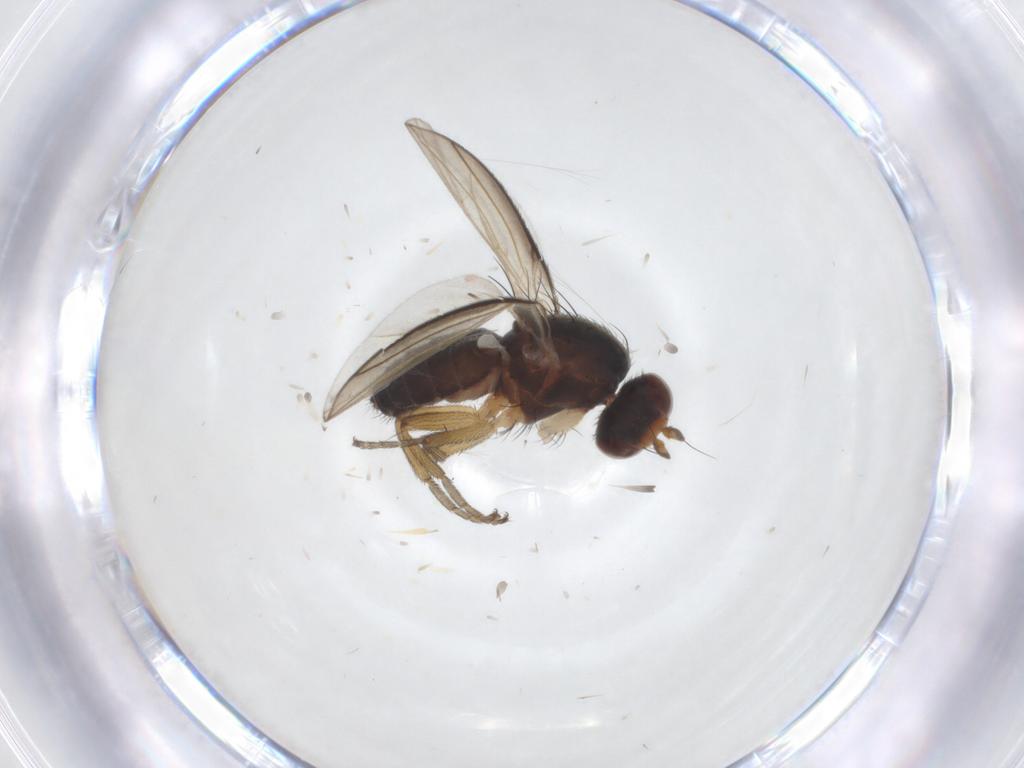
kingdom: Animalia
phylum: Arthropoda
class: Insecta
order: Diptera
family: Heleomyzidae
